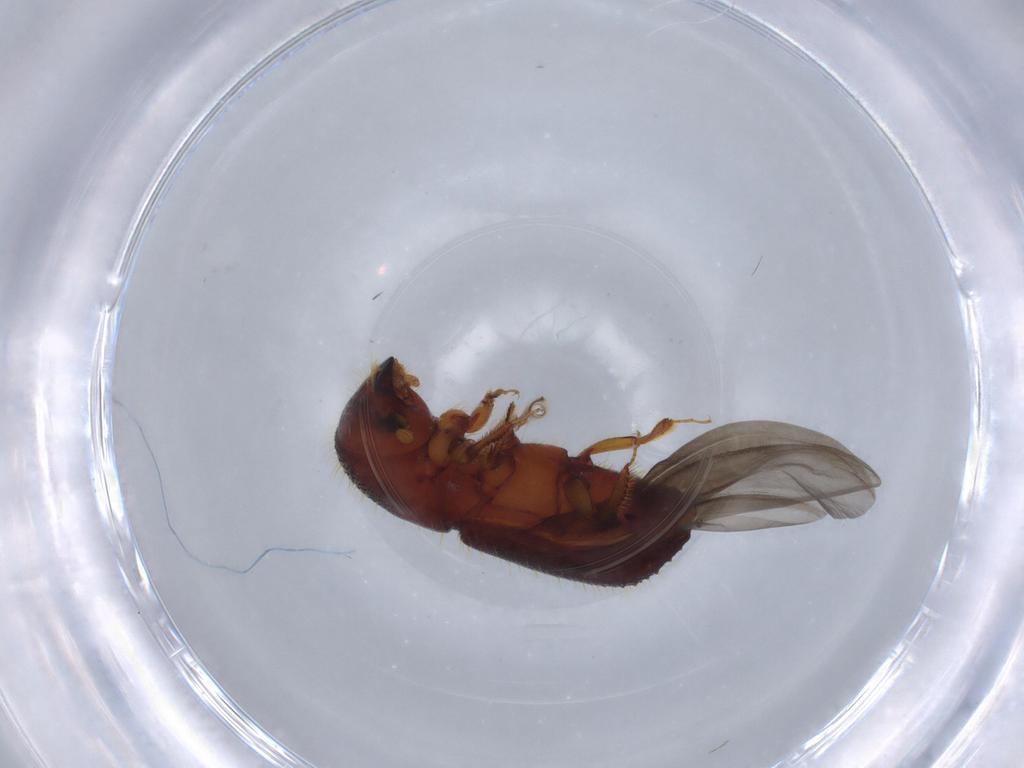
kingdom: Animalia
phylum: Arthropoda
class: Insecta
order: Coleoptera
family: Curculionidae
